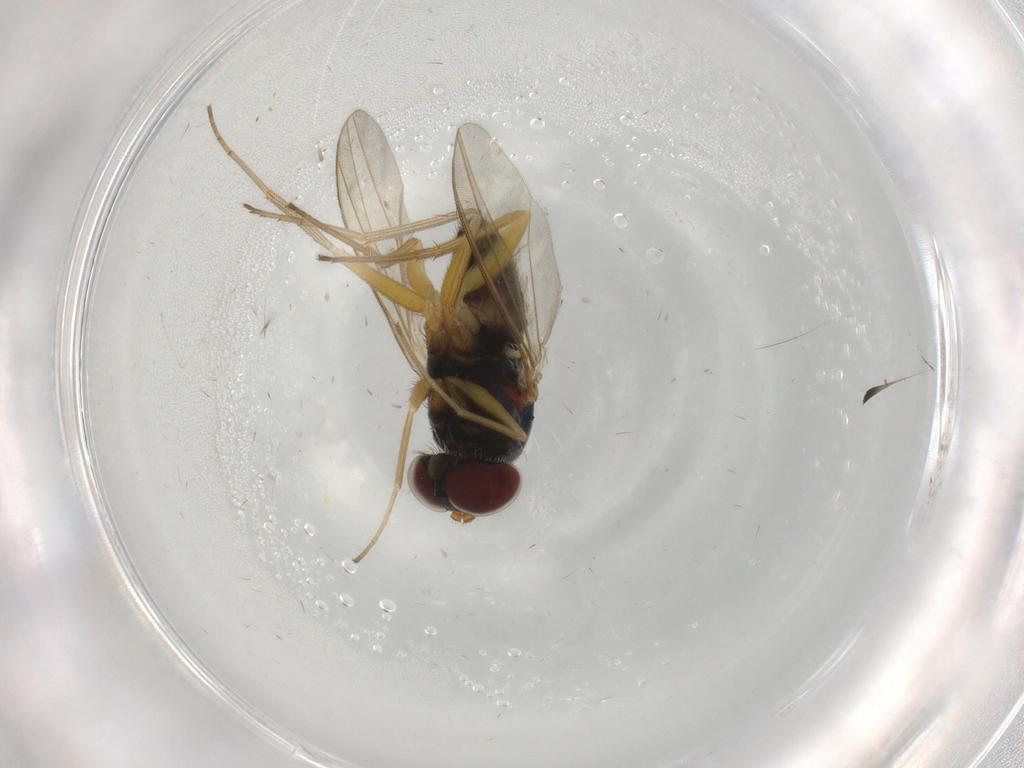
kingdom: Animalia
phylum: Arthropoda
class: Insecta
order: Diptera
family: Dolichopodidae
